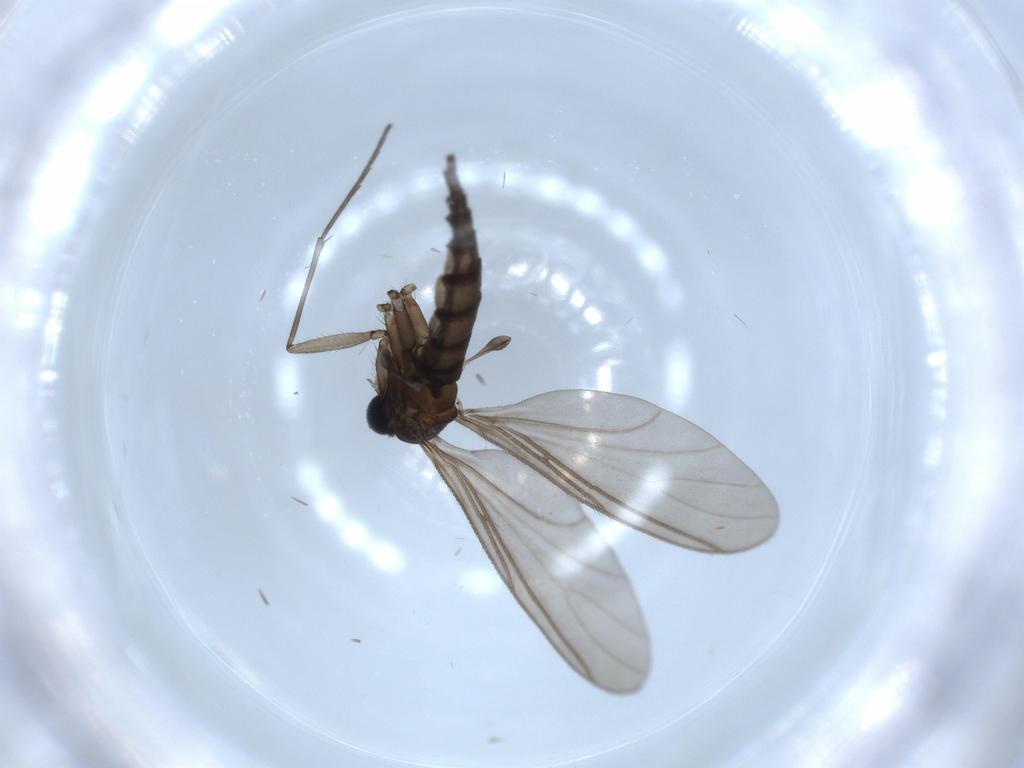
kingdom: Animalia
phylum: Arthropoda
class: Insecta
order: Diptera
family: Sciaridae
